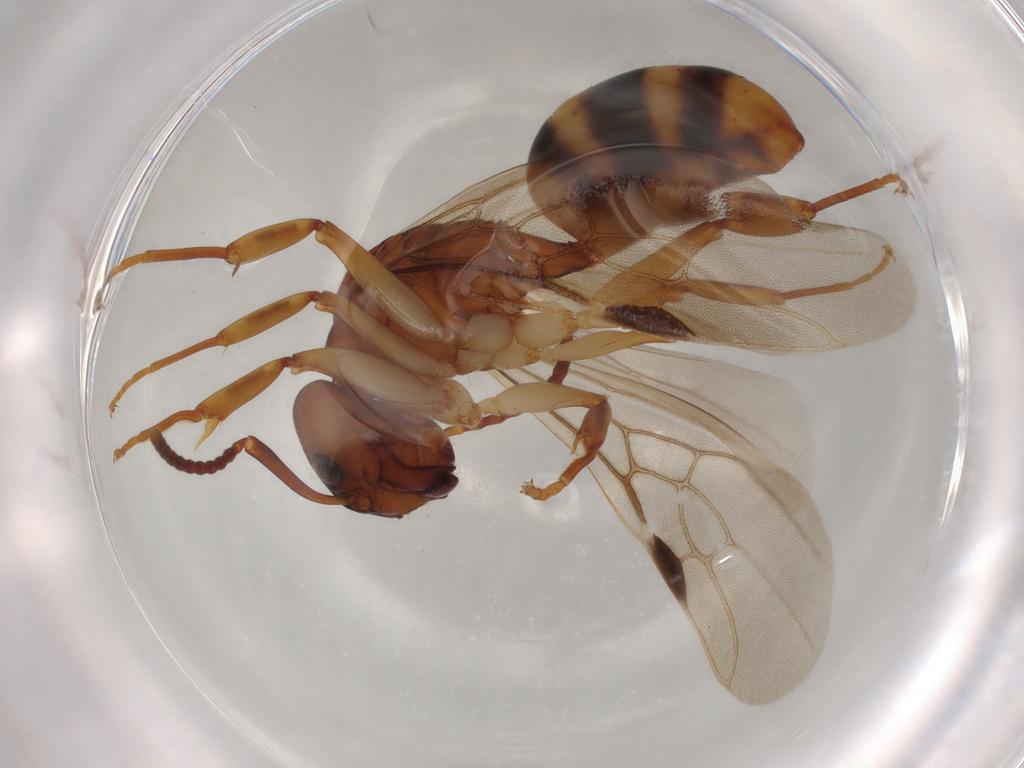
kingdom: Animalia
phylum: Arthropoda
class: Insecta
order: Hymenoptera
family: Formicidae
